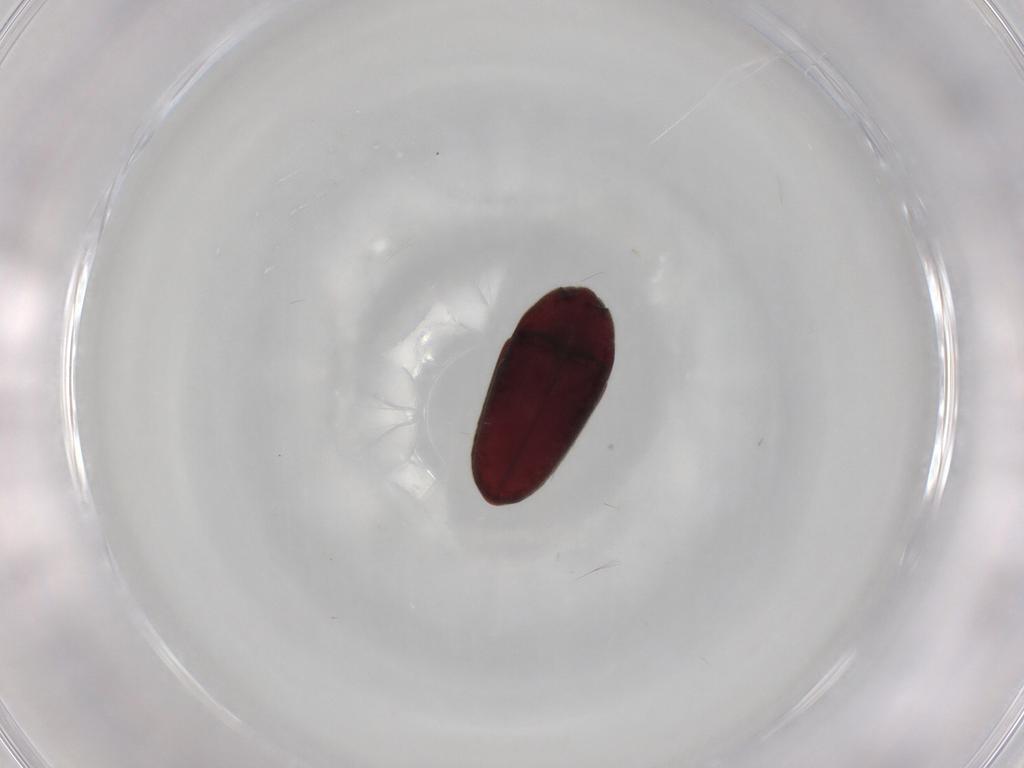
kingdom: Animalia
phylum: Arthropoda
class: Insecta
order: Coleoptera
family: Throscidae
